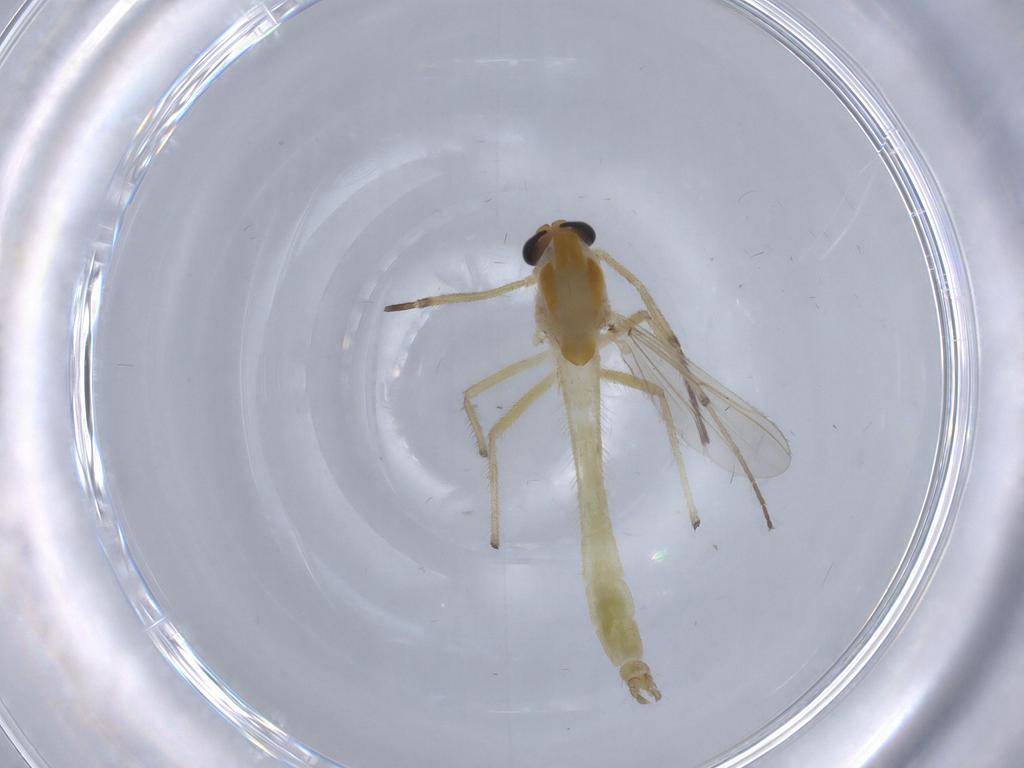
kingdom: Animalia
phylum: Arthropoda
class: Insecta
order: Diptera
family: Chironomidae
